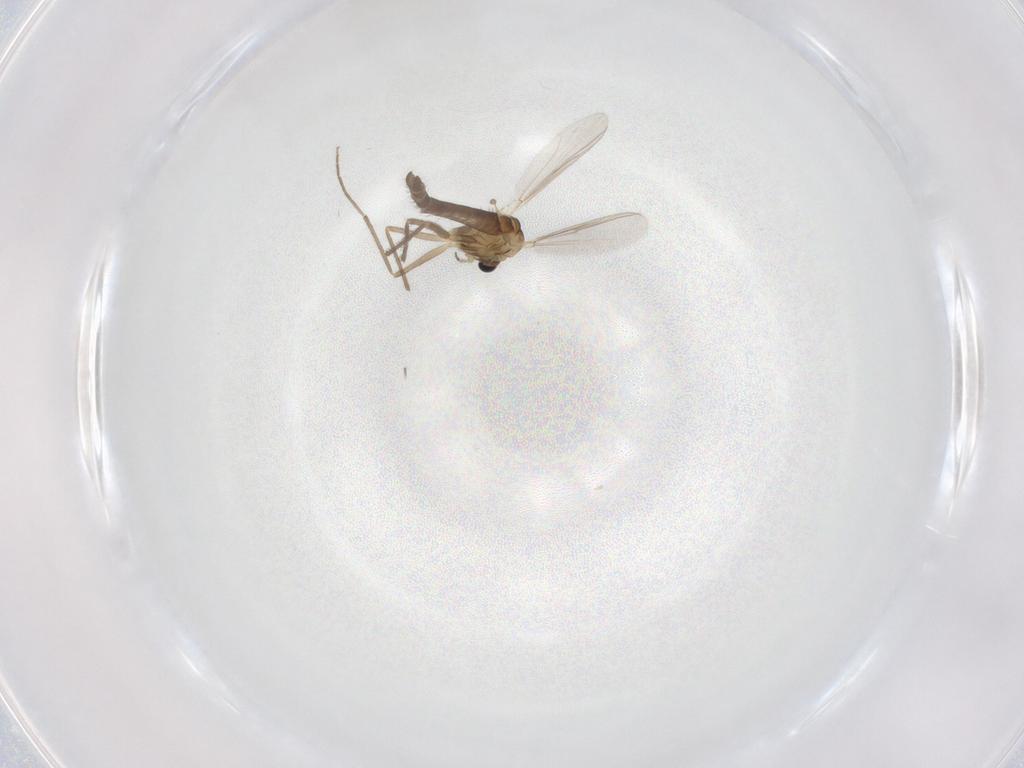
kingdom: Animalia
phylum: Arthropoda
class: Insecta
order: Diptera
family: Chironomidae
